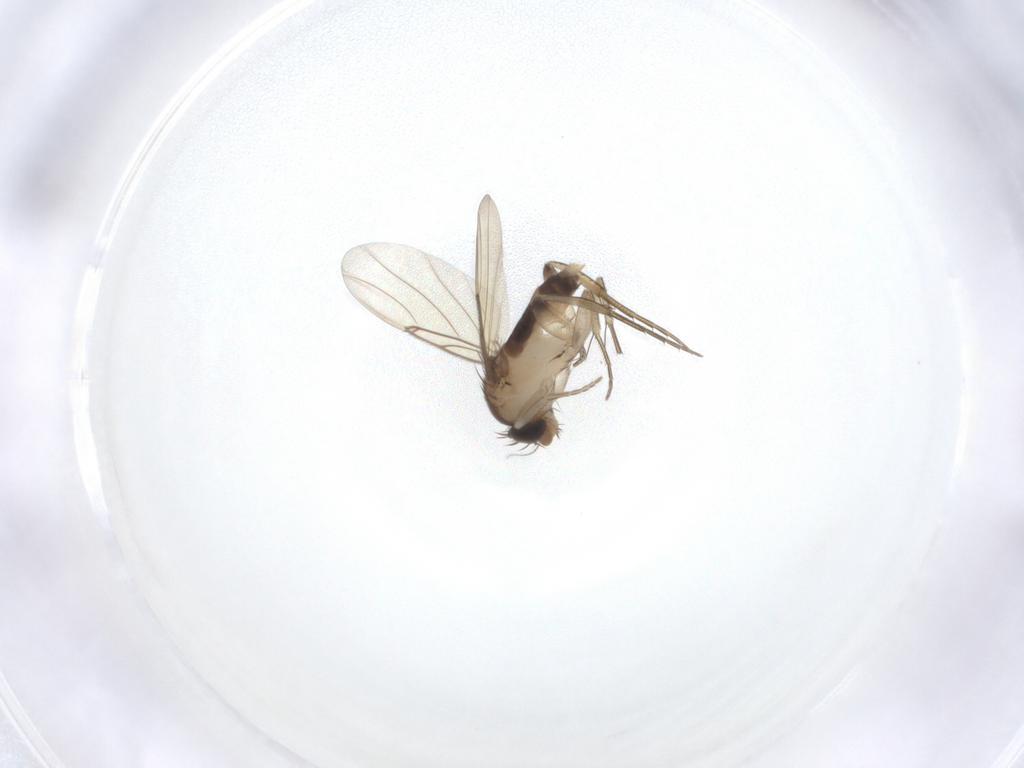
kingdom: Animalia
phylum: Arthropoda
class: Insecta
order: Diptera
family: Phoridae
